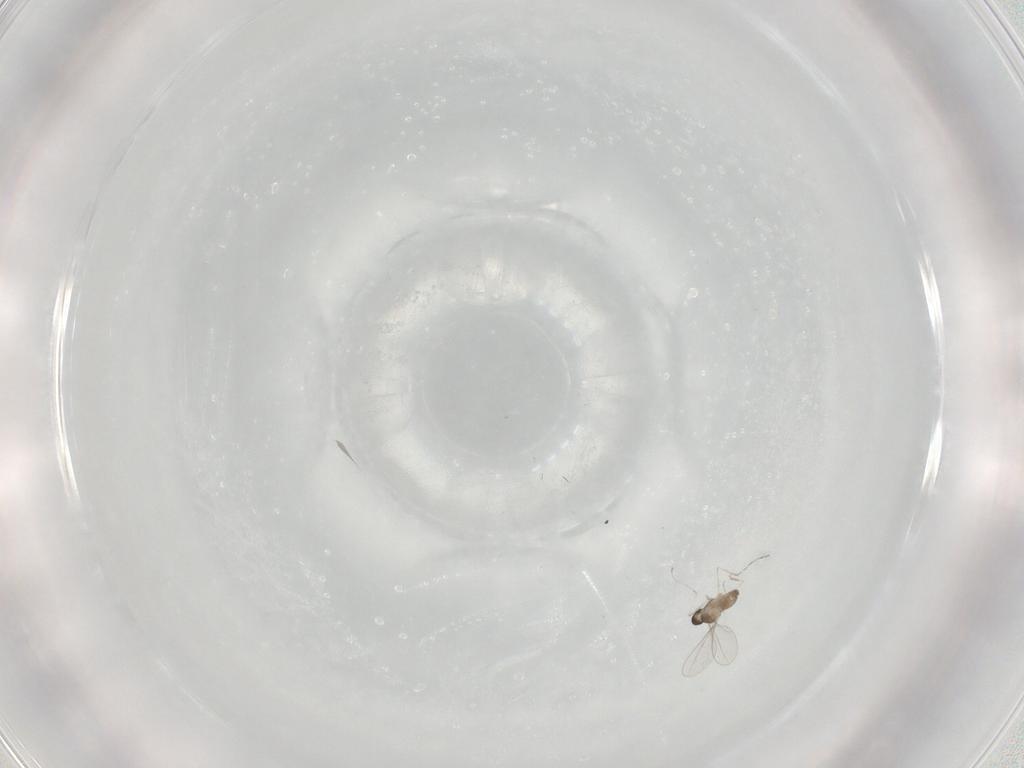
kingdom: Animalia
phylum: Arthropoda
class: Insecta
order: Diptera
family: Cecidomyiidae
